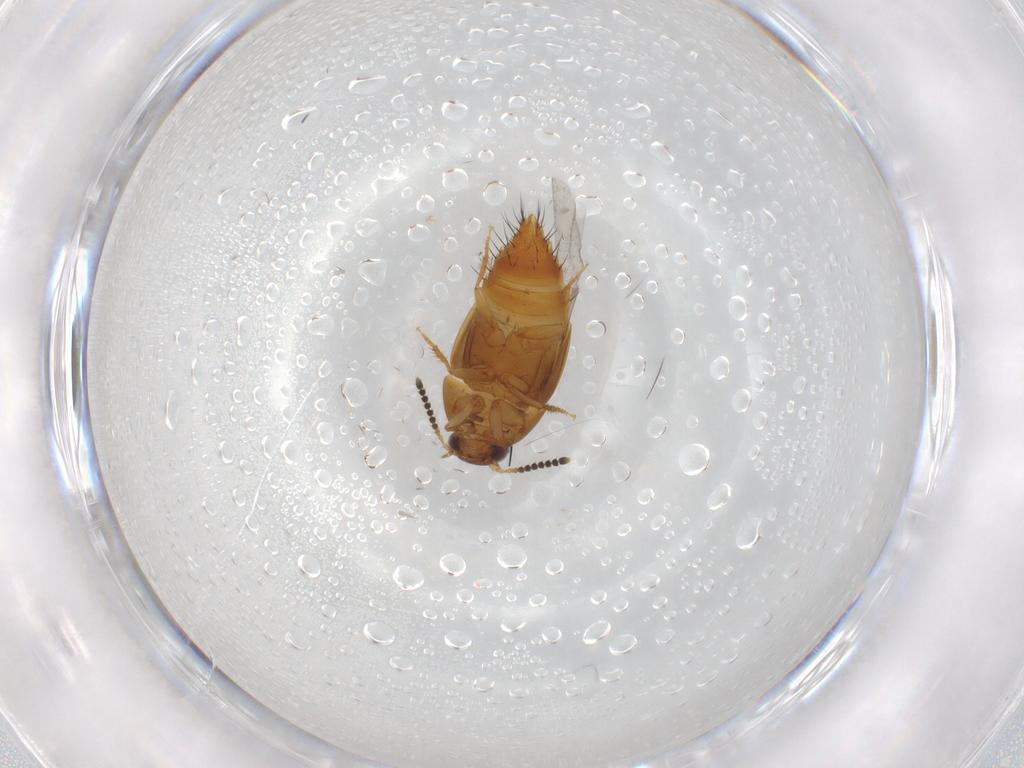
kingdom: Animalia
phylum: Arthropoda
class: Insecta
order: Coleoptera
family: Eucnemidae
